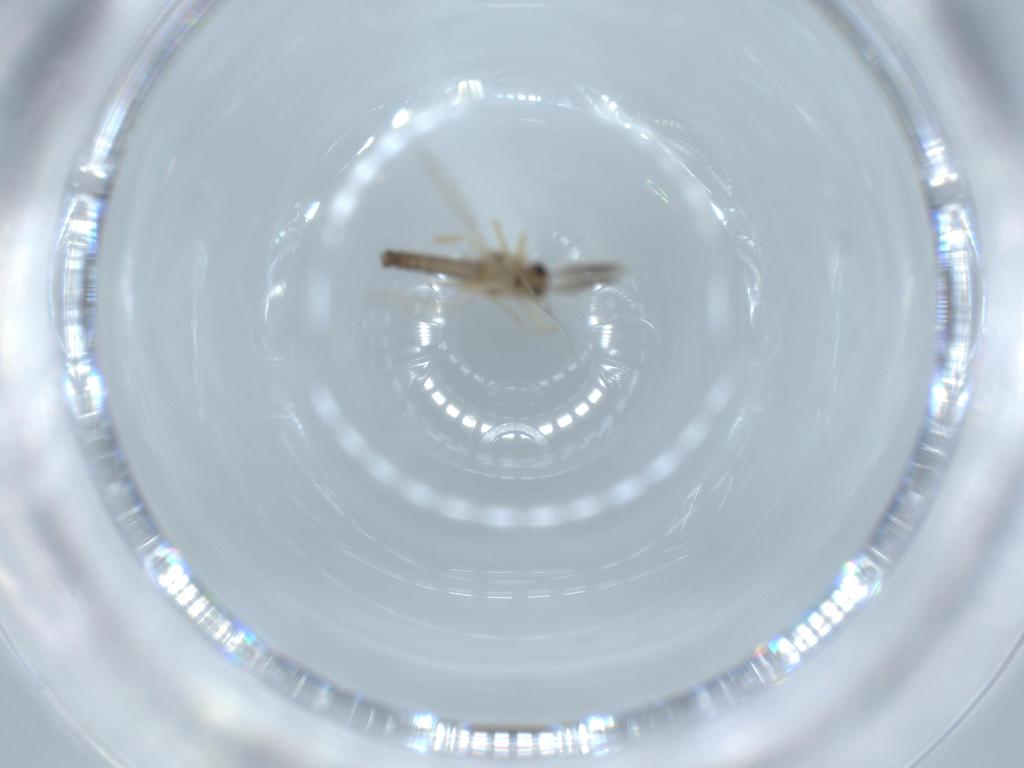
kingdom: Animalia
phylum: Arthropoda
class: Insecta
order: Diptera
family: Ceratopogonidae
